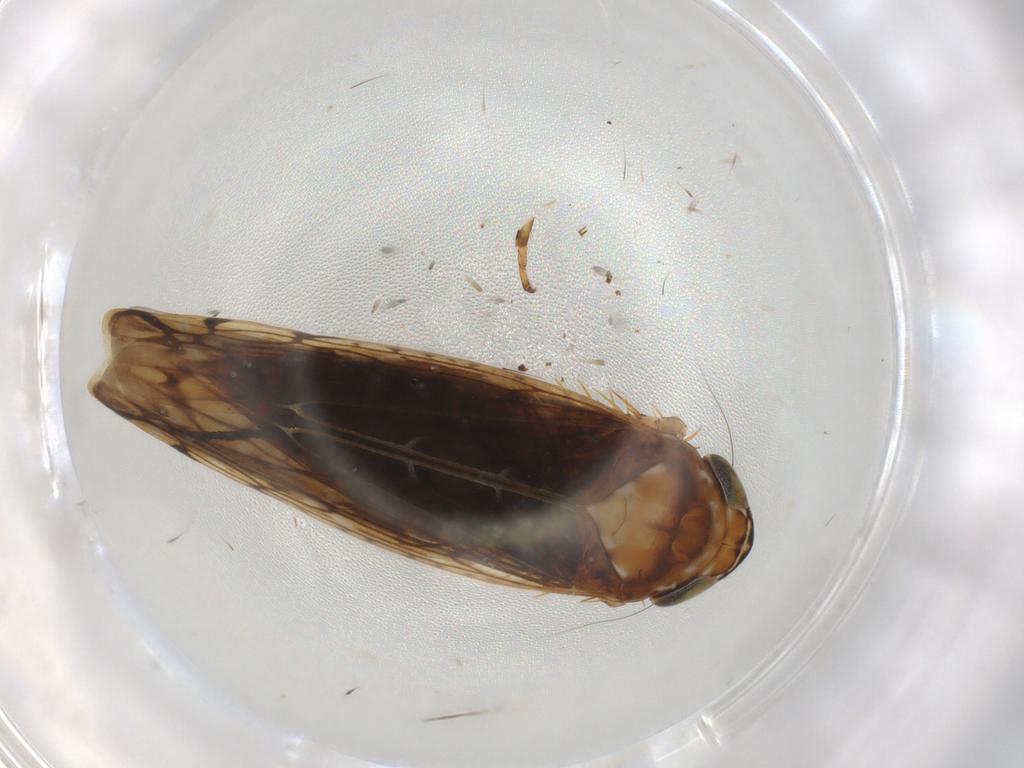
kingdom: Animalia
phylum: Arthropoda
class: Insecta
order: Hemiptera
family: Cicadellidae
